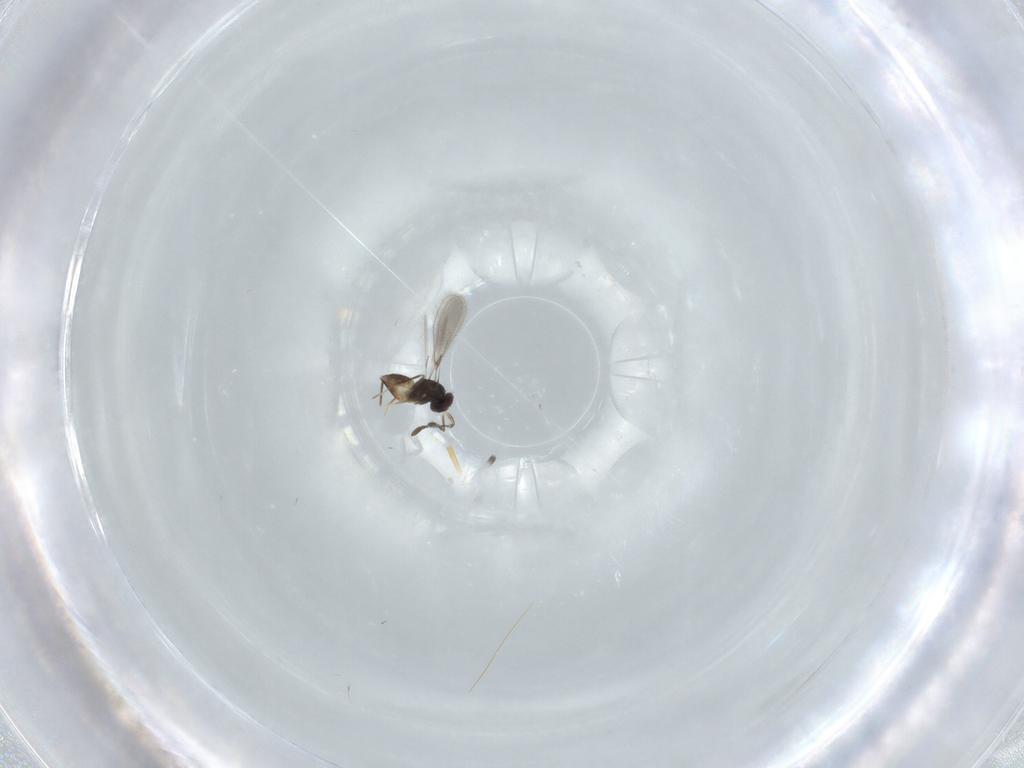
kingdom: Animalia
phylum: Arthropoda
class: Insecta
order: Hymenoptera
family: Mymaridae
